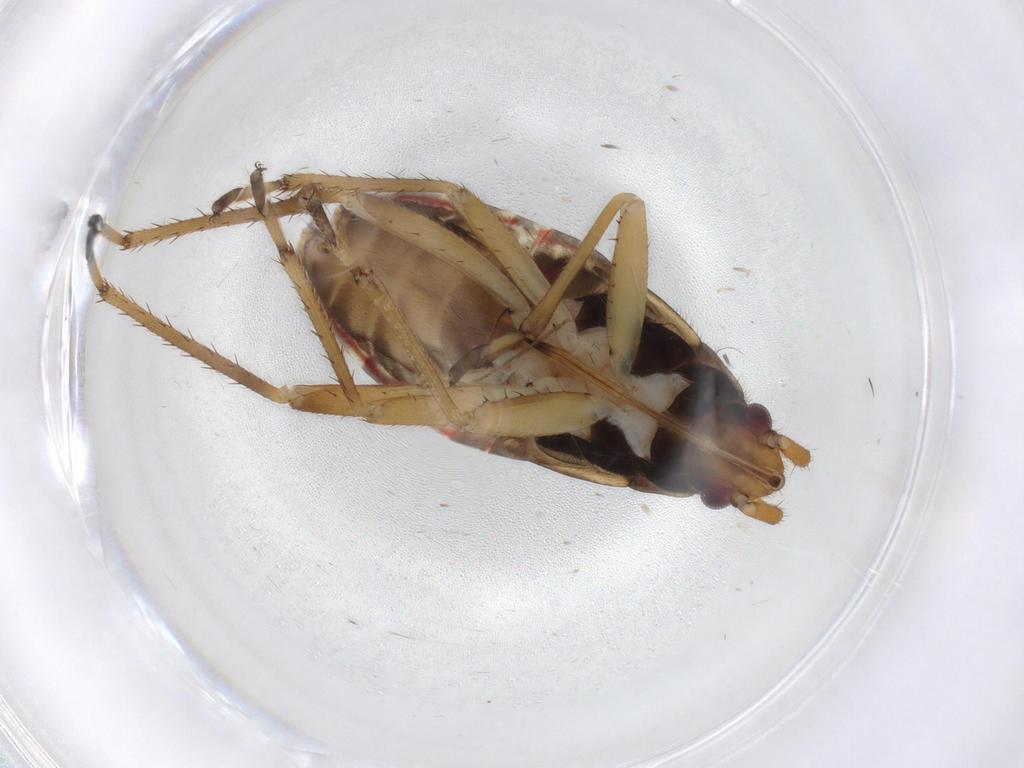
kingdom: Animalia
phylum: Arthropoda
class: Insecta
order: Hemiptera
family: Rhyparochromidae
